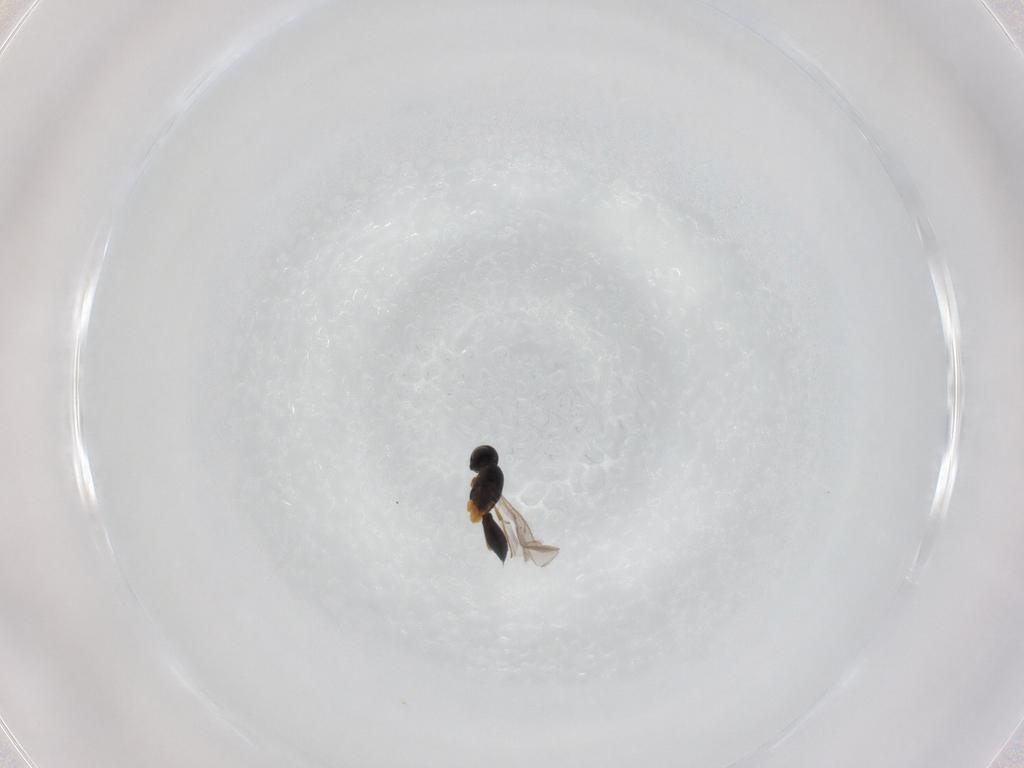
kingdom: Animalia
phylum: Arthropoda
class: Insecta
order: Hymenoptera
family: Scelionidae
